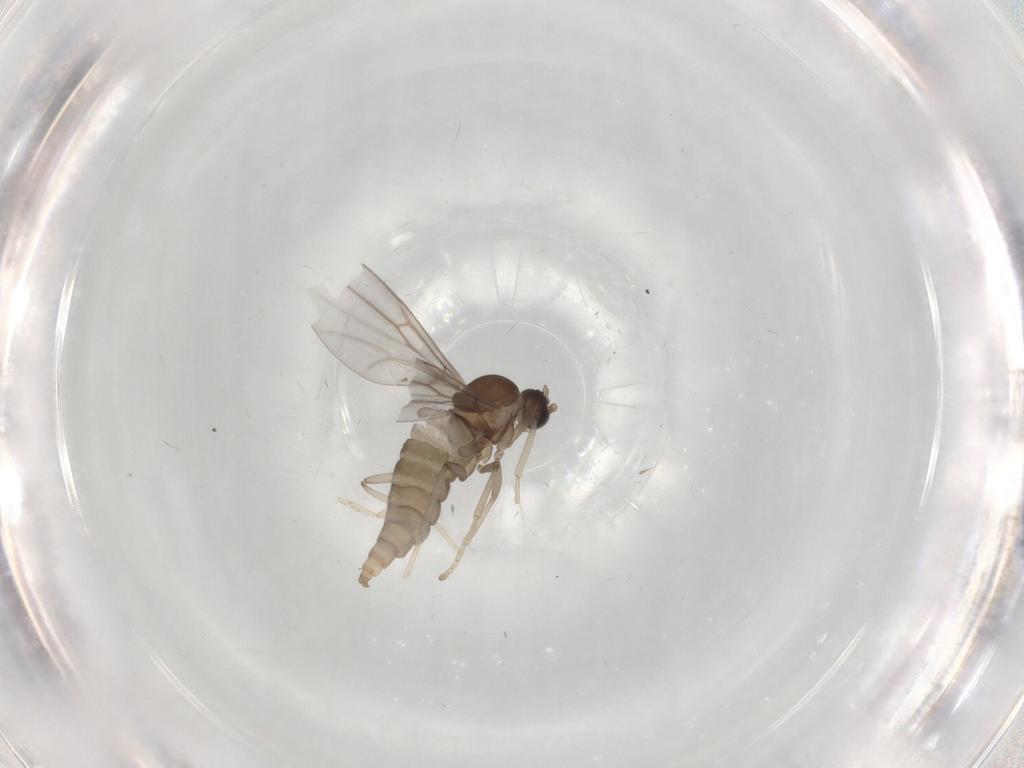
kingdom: Animalia
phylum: Arthropoda
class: Insecta
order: Diptera
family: Cecidomyiidae
